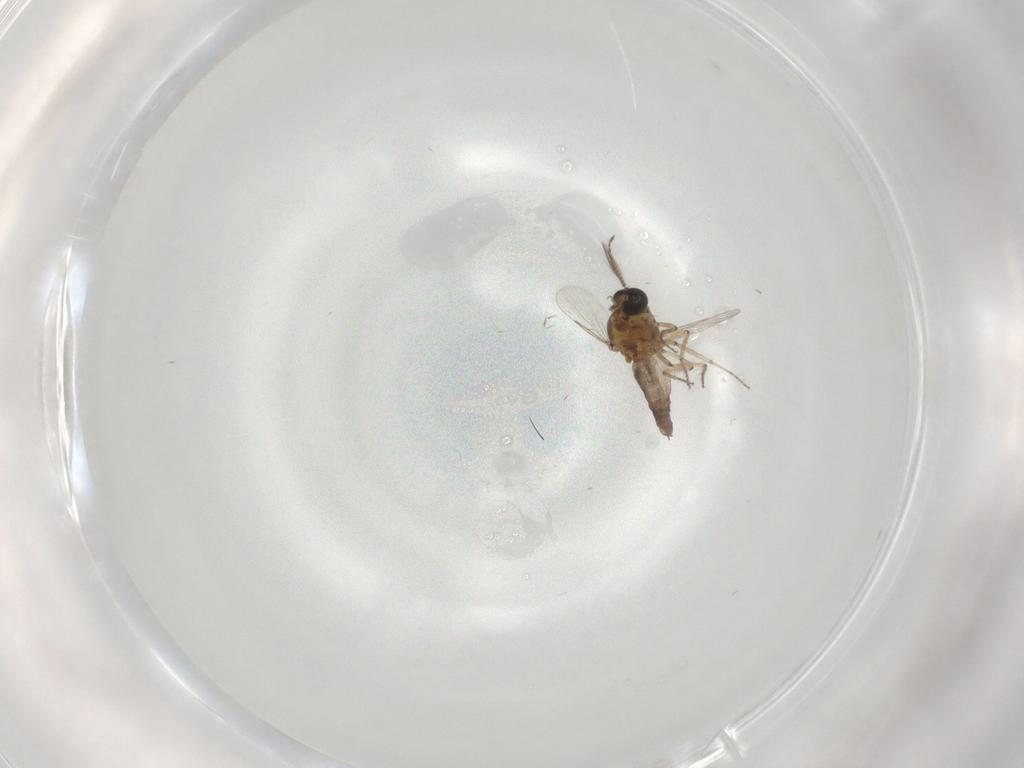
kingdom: Animalia
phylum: Arthropoda
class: Insecta
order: Diptera
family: Ceratopogonidae
